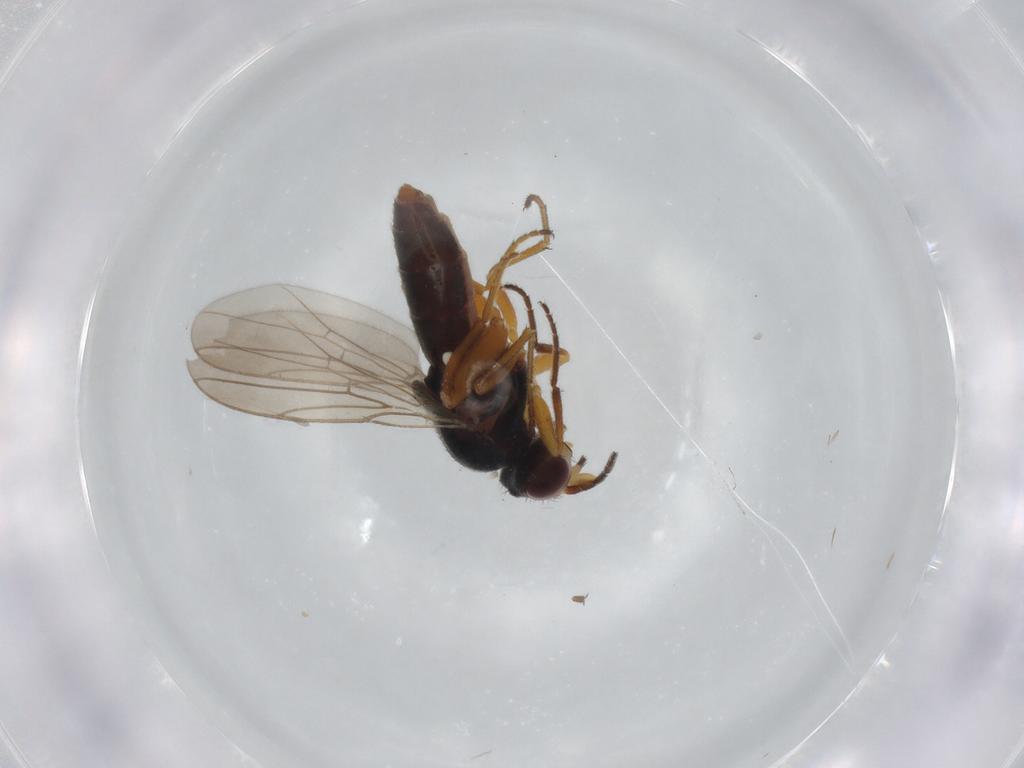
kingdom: Animalia
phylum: Arthropoda
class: Insecta
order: Diptera
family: Chloropidae
